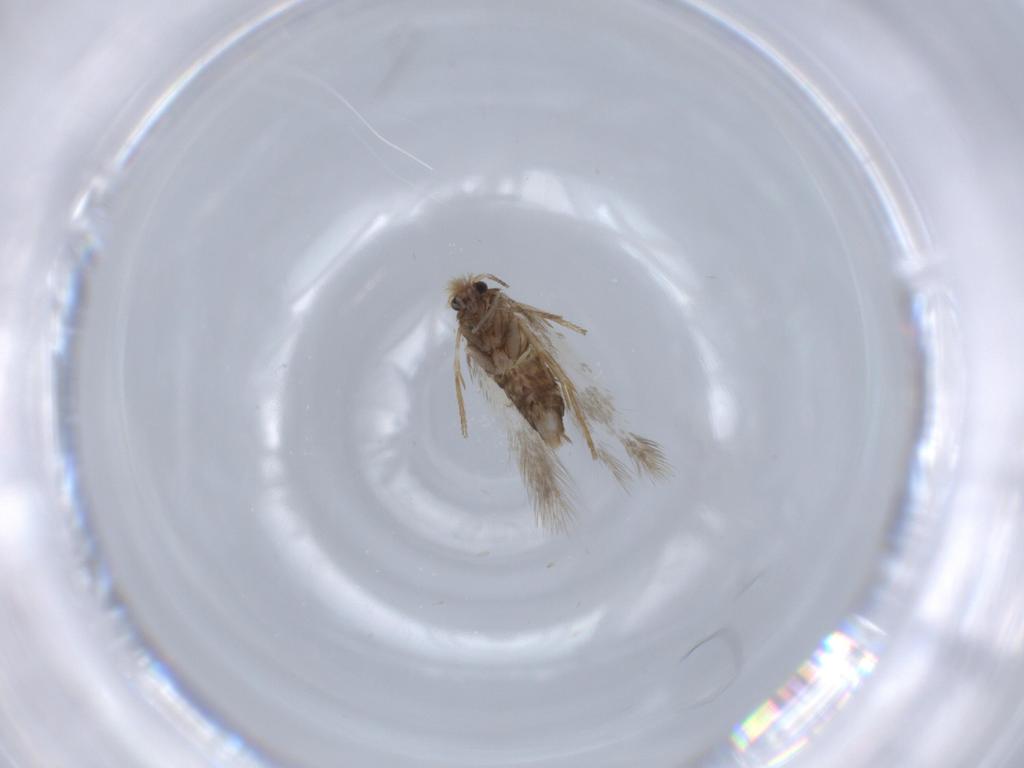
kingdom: Animalia
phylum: Arthropoda
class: Insecta
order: Lepidoptera
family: Nepticulidae
